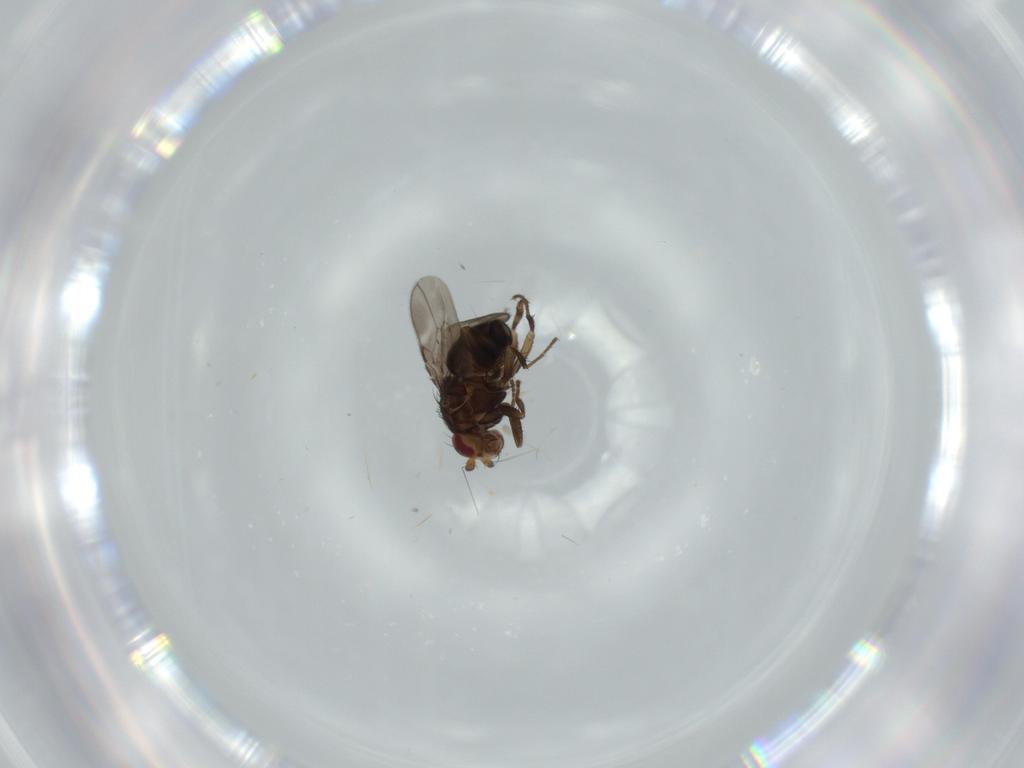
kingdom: Animalia
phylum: Arthropoda
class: Insecta
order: Diptera
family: Sphaeroceridae
